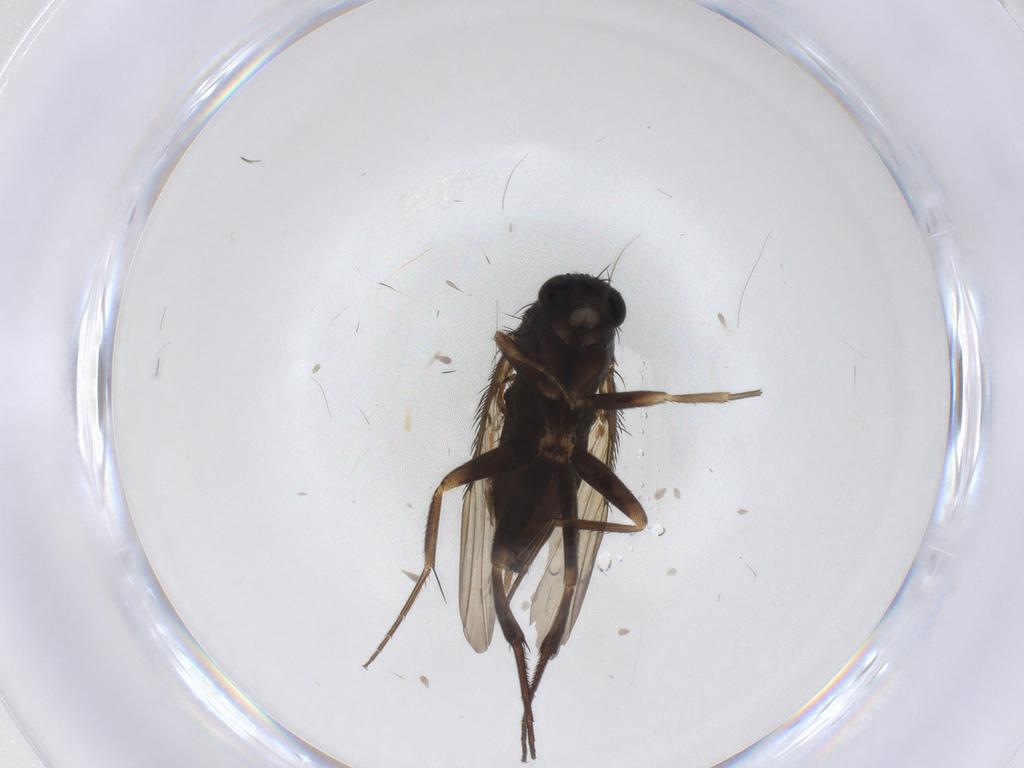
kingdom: Animalia
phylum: Arthropoda
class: Insecta
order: Diptera
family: Phoridae
